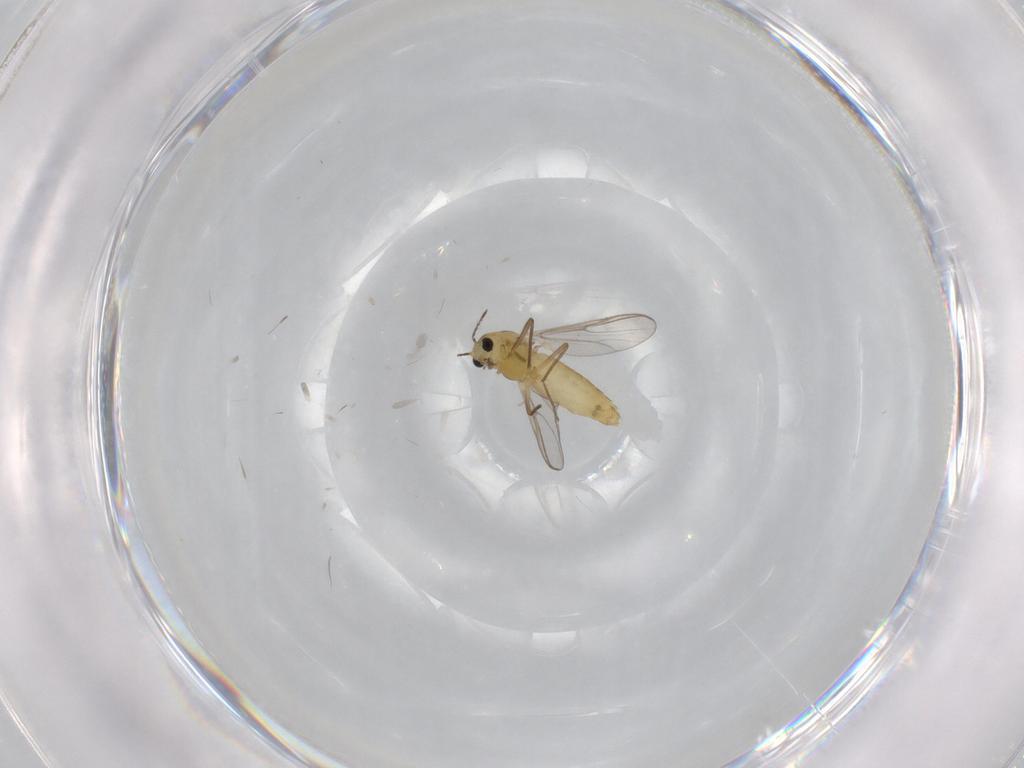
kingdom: Animalia
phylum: Arthropoda
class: Insecta
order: Diptera
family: Chironomidae
